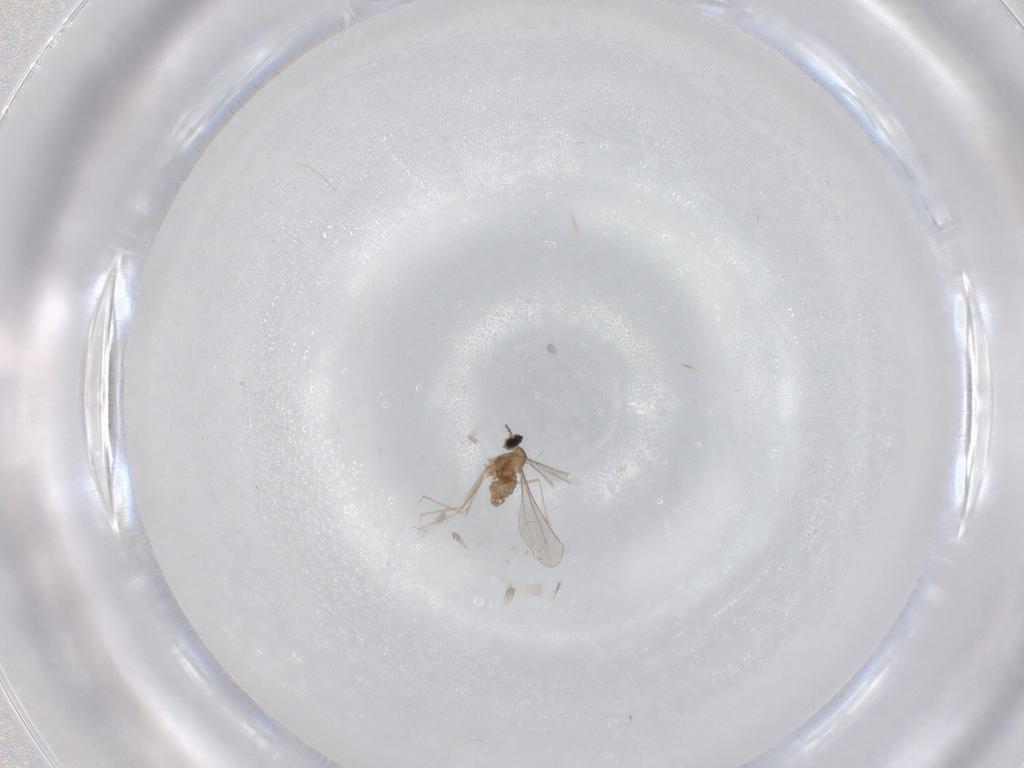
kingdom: Animalia
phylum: Arthropoda
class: Insecta
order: Diptera
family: Cecidomyiidae
